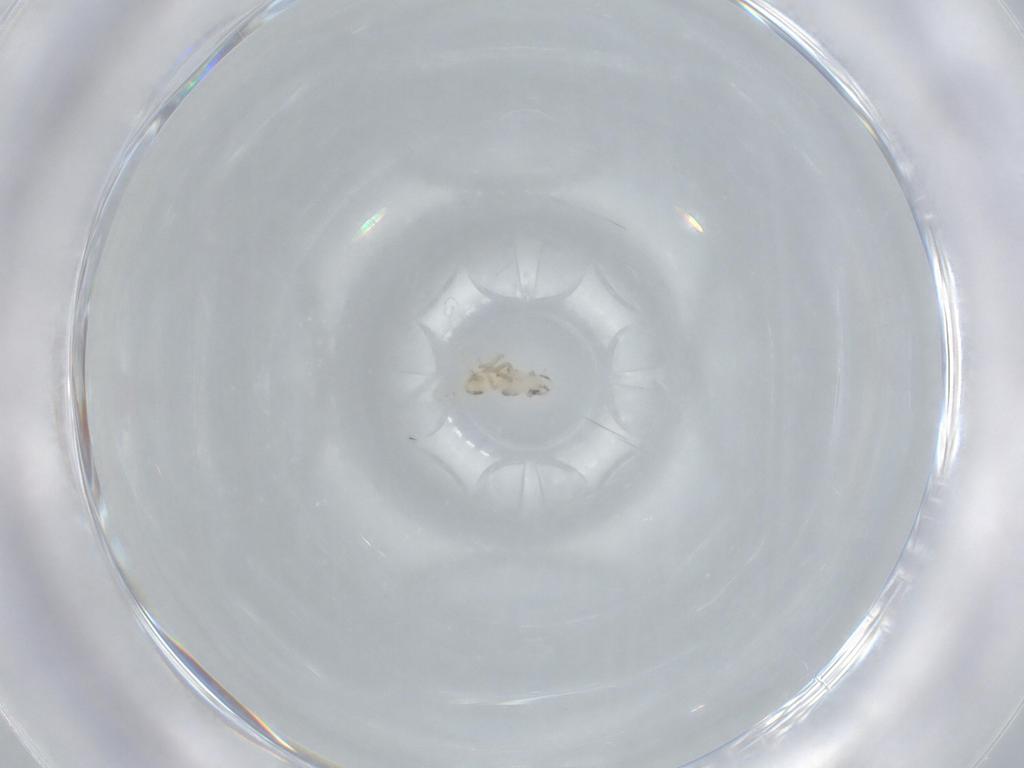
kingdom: Animalia
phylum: Arthropoda
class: Insecta
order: Hemiptera
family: Delphacidae
